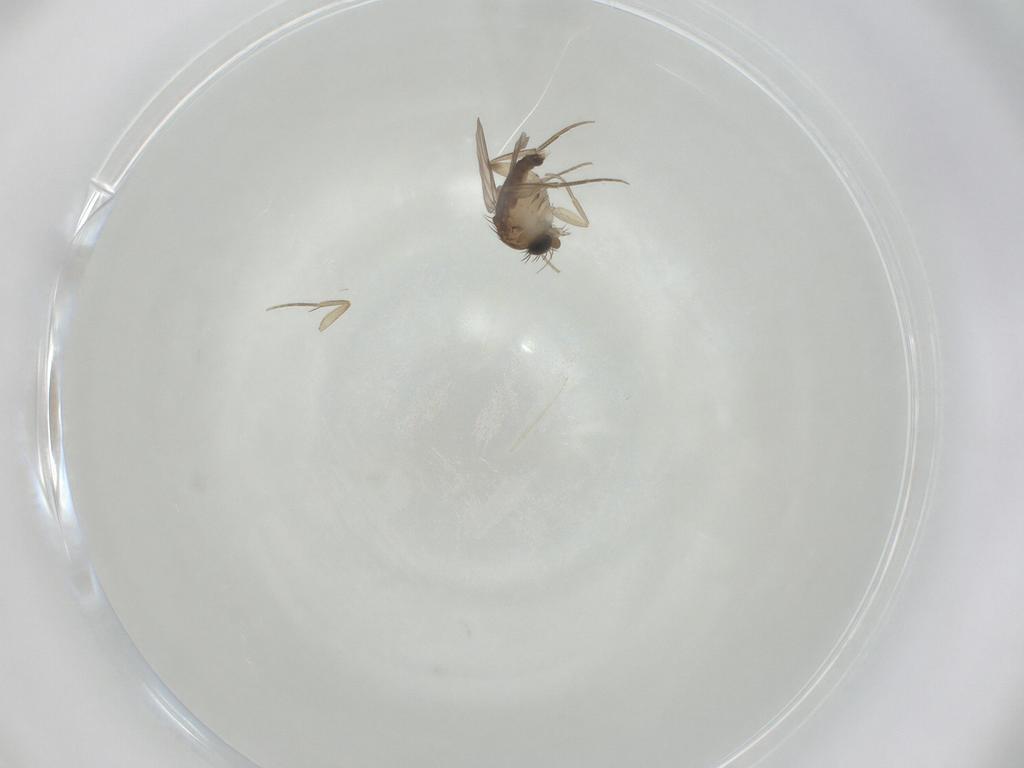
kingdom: Animalia
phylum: Arthropoda
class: Insecta
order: Diptera
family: Phoridae
